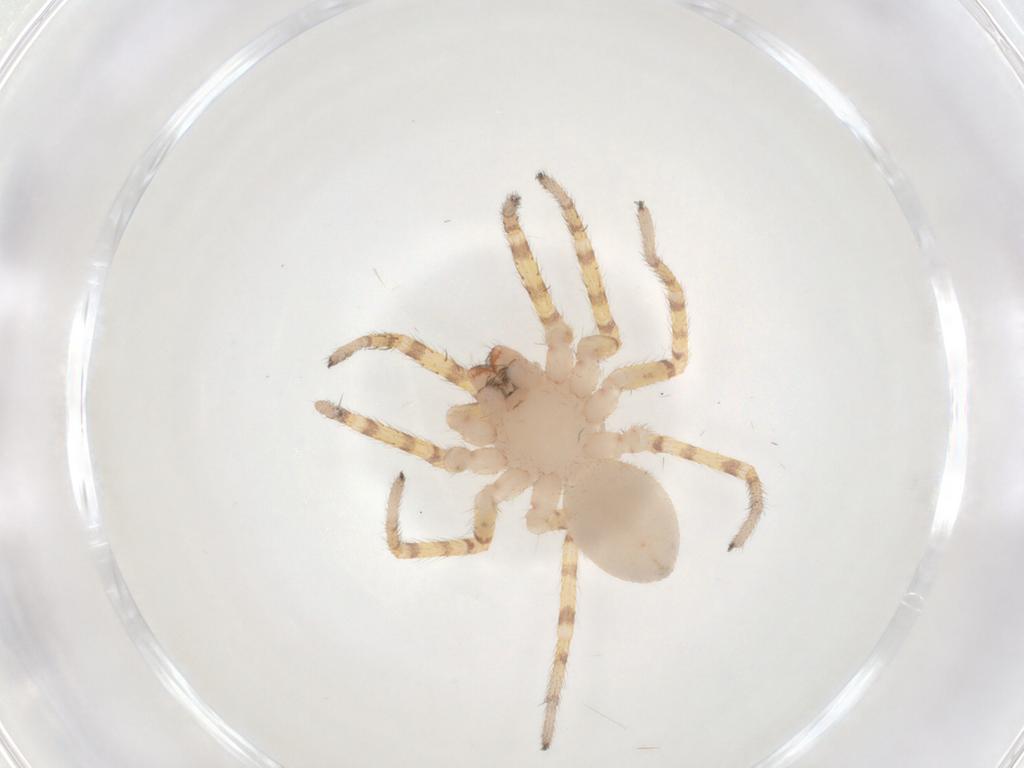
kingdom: Animalia
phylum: Arthropoda
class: Arachnida
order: Araneae
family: Corinnidae
